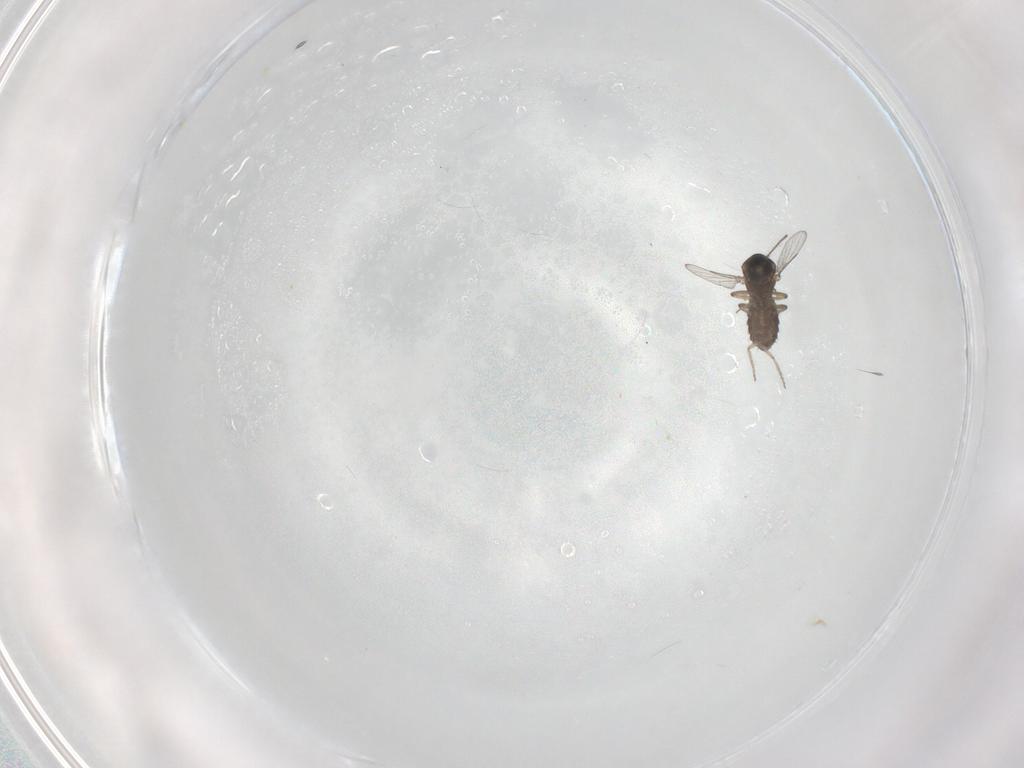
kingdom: Animalia
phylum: Arthropoda
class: Insecta
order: Diptera
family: Ceratopogonidae
